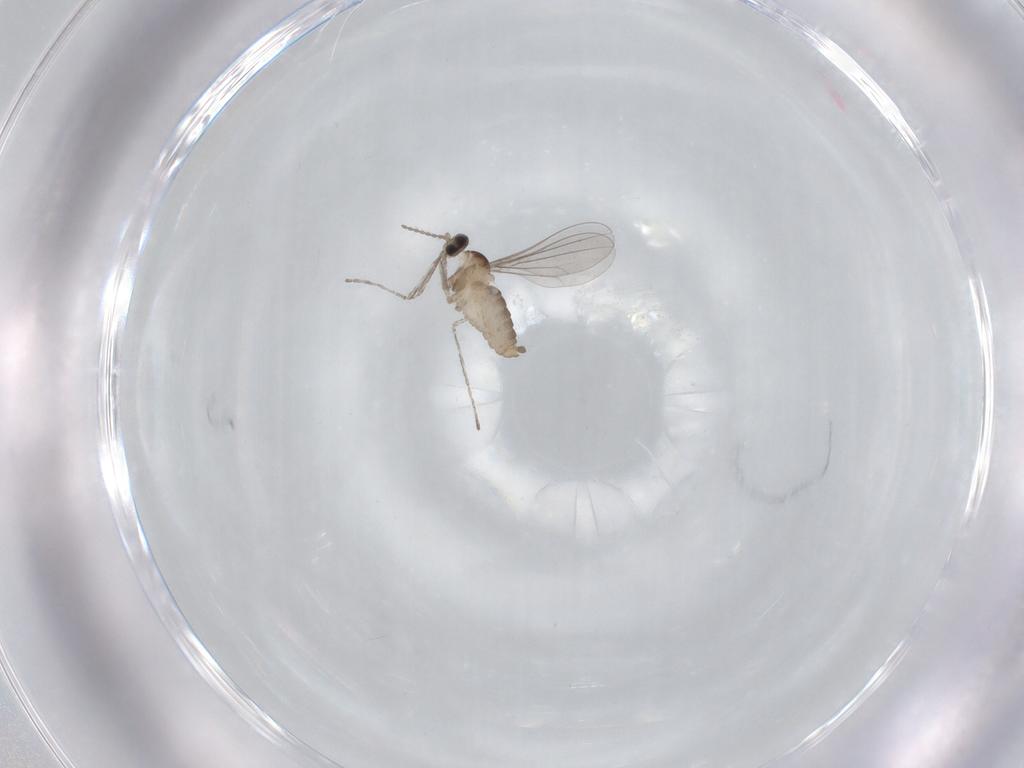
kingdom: Animalia
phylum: Arthropoda
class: Insecta
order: Diptera
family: Cecidomyiidae
